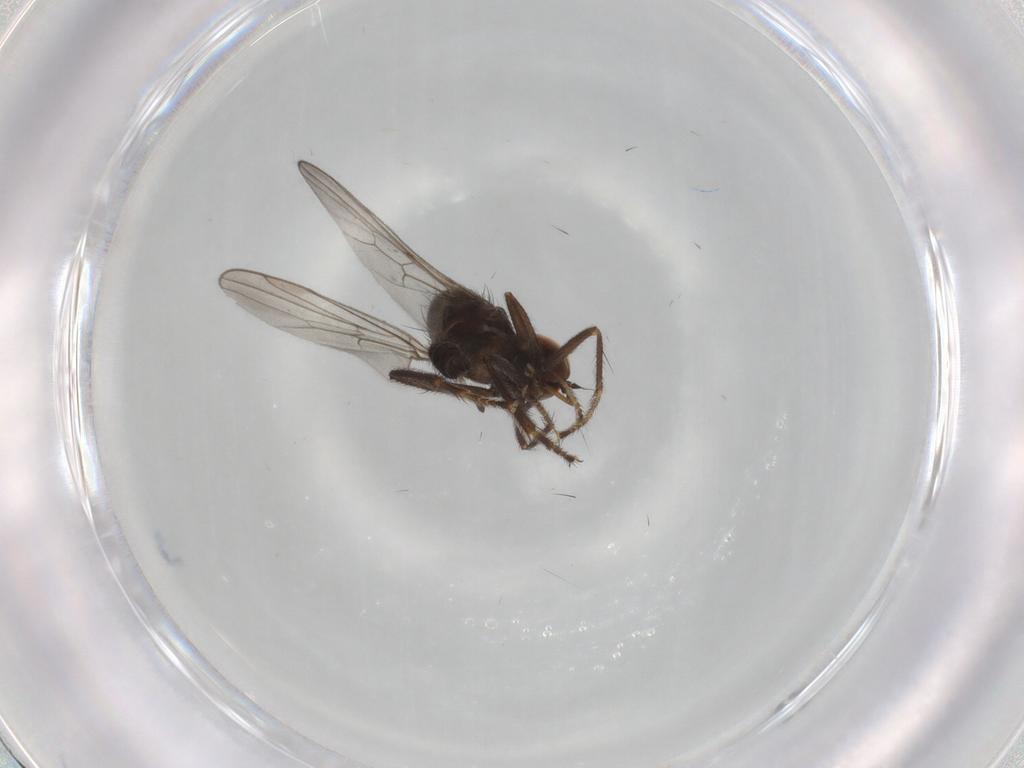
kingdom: Animalia
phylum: Arthropoda
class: Insecta
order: Diptera
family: Hybotidae
